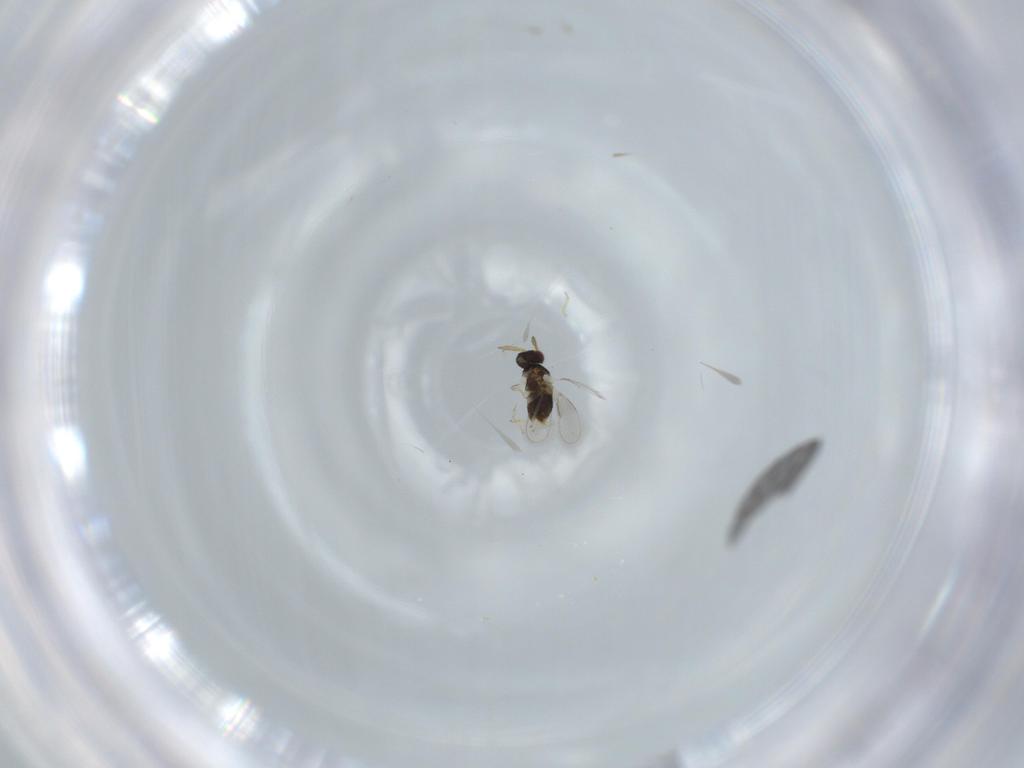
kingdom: Animalia
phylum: Arthropoda
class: Insecta
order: Hymenoptera
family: Aphelinidae
